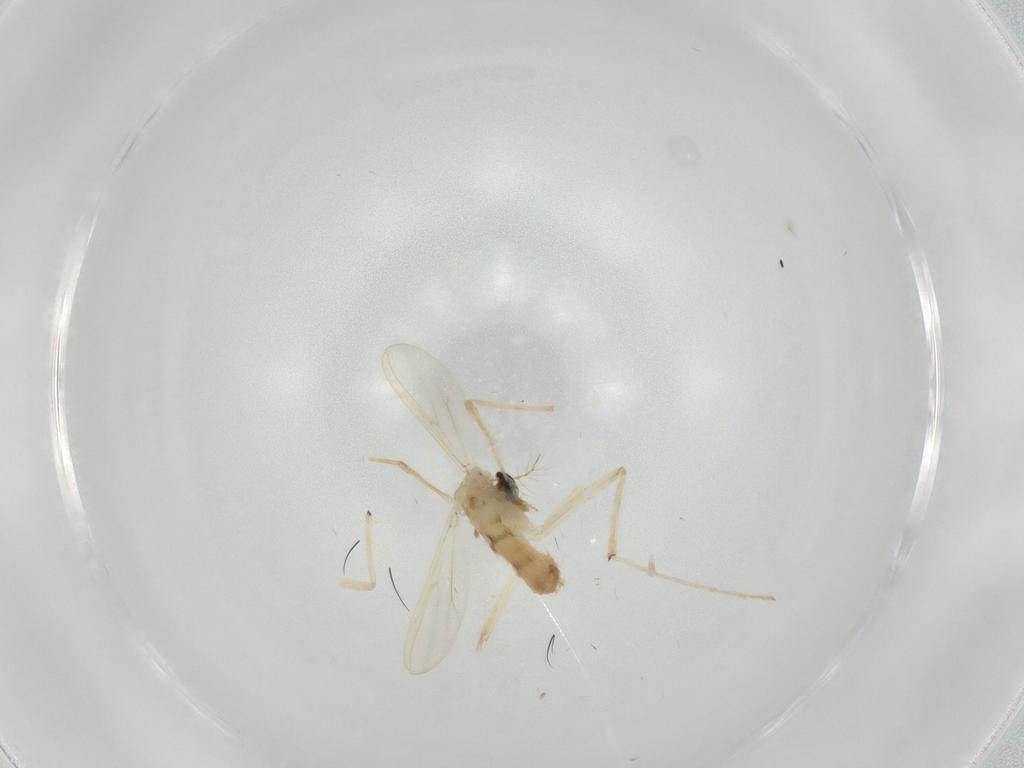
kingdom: Animalia
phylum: Arthropoda
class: Insecta
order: Diptera
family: Chironomidae
